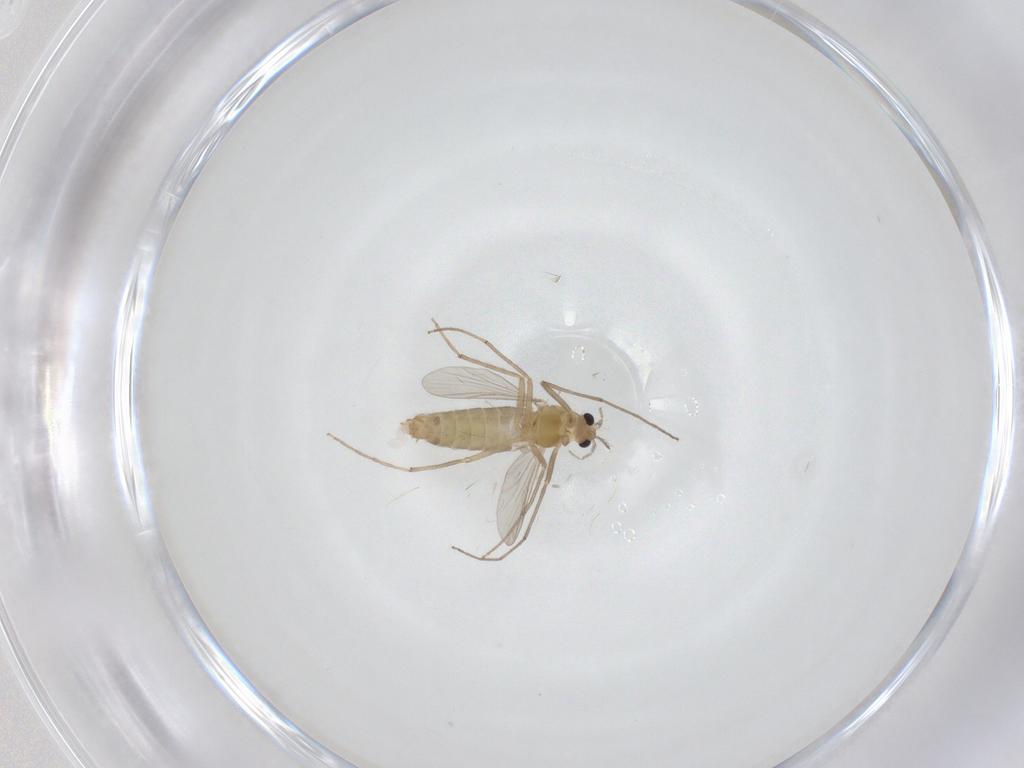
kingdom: Animalia
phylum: Arthropoda
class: Insecta
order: Diptera
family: Chironomidae
